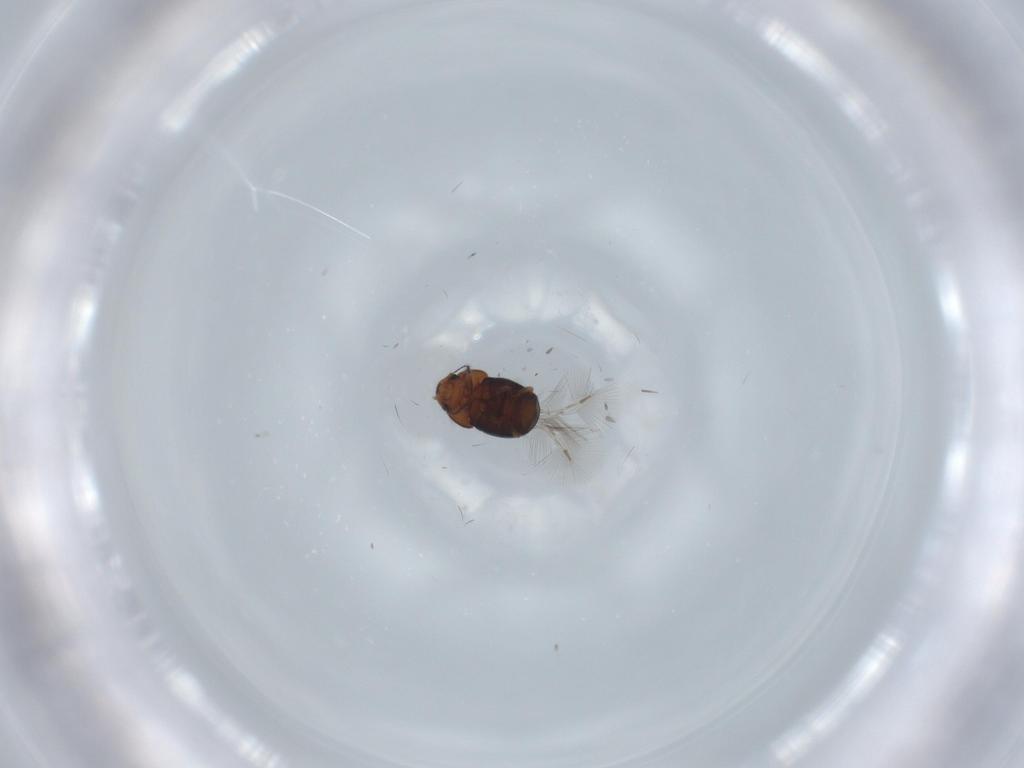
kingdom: Animalia
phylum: Arthropoda
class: Insecta
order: Coleoptera
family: Ptiliidae
